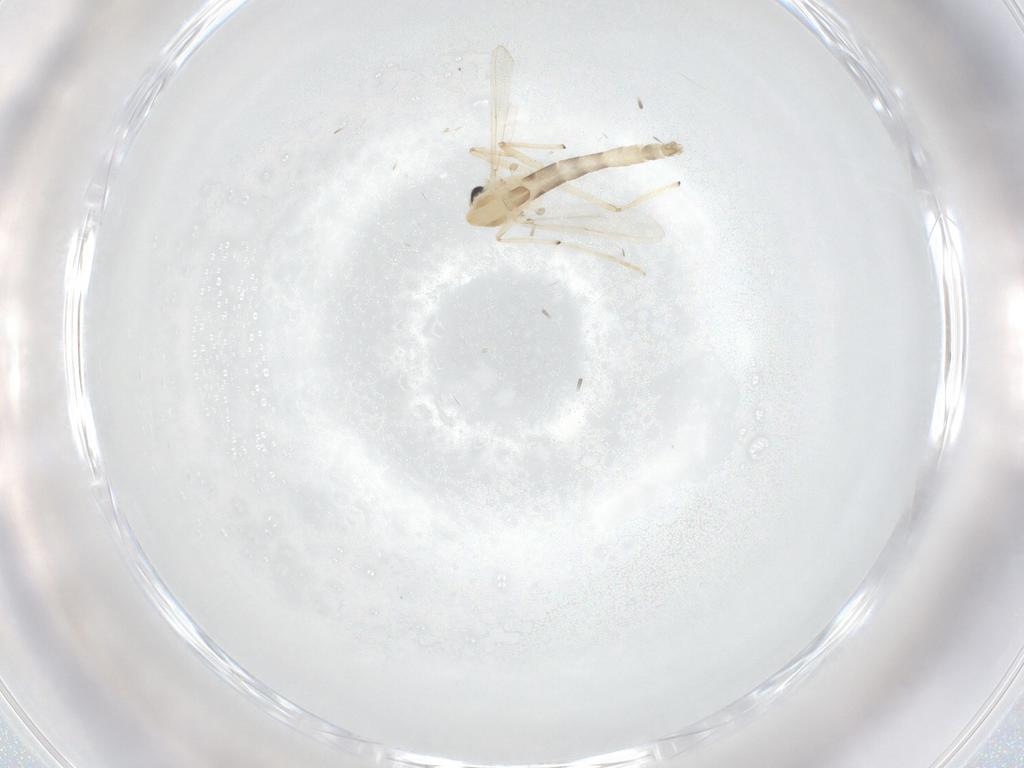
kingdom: Animalia
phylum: Arthropoda
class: Insecta
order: Diptera
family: Chironomidae
